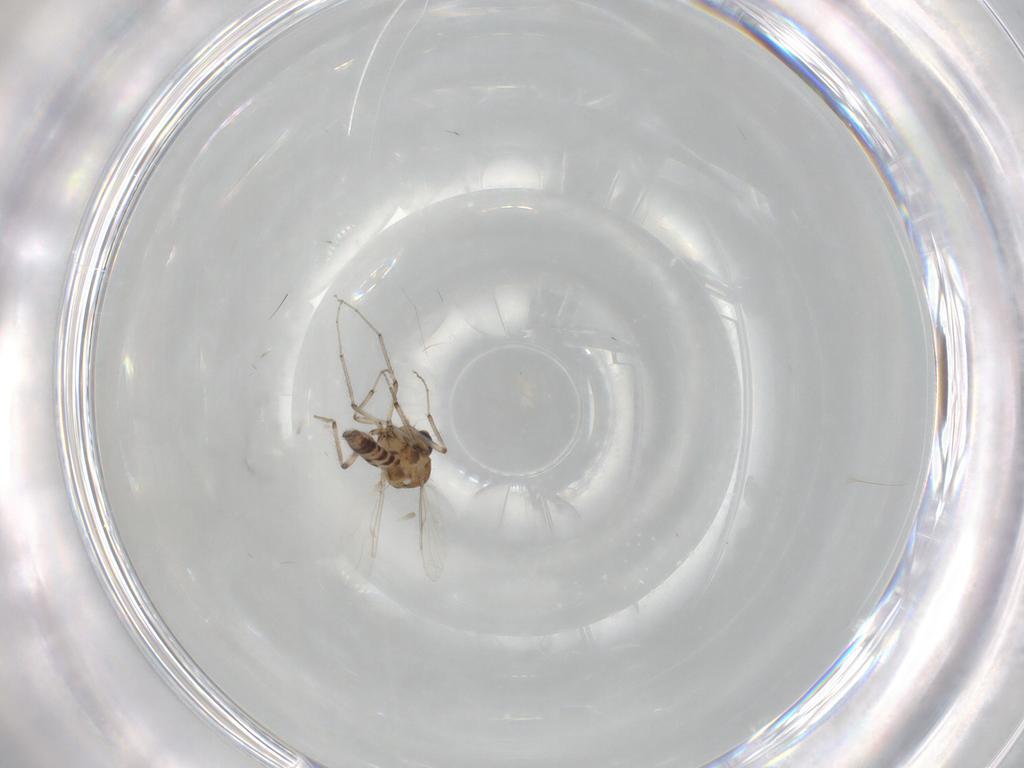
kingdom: Animalia
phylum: Arthropoda
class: Insecta
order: Diptera
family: Ceratopogonidae
